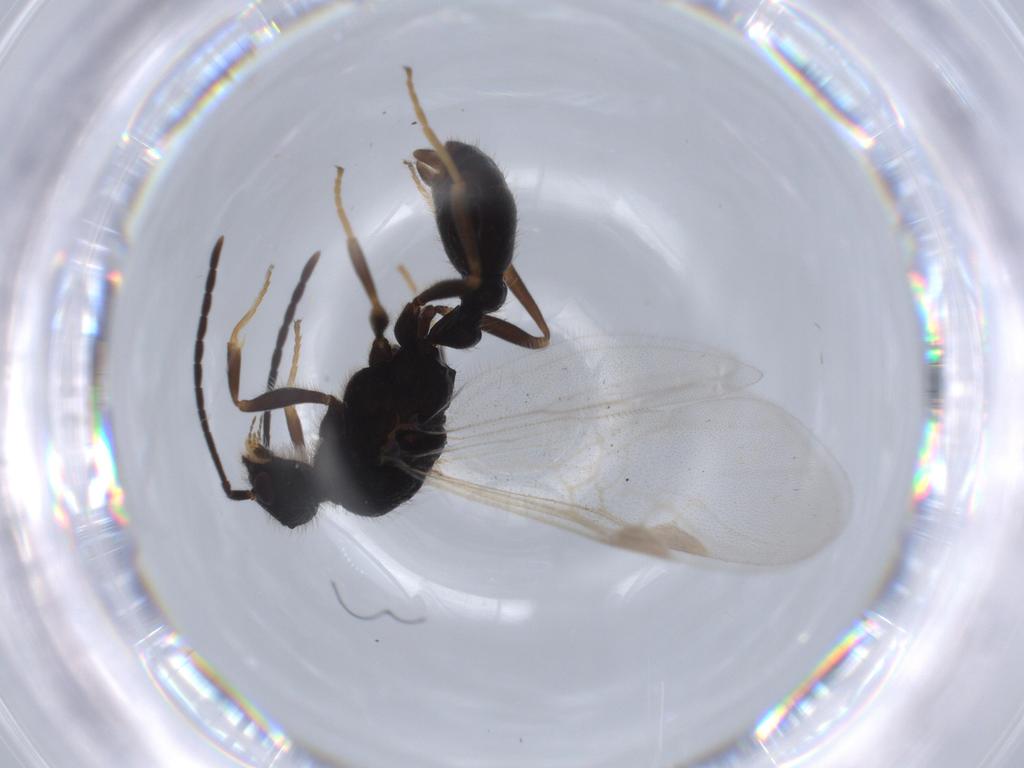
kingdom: Animalia
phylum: Arthropoda
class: Insecta
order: Hymenoptera
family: Formicidae
